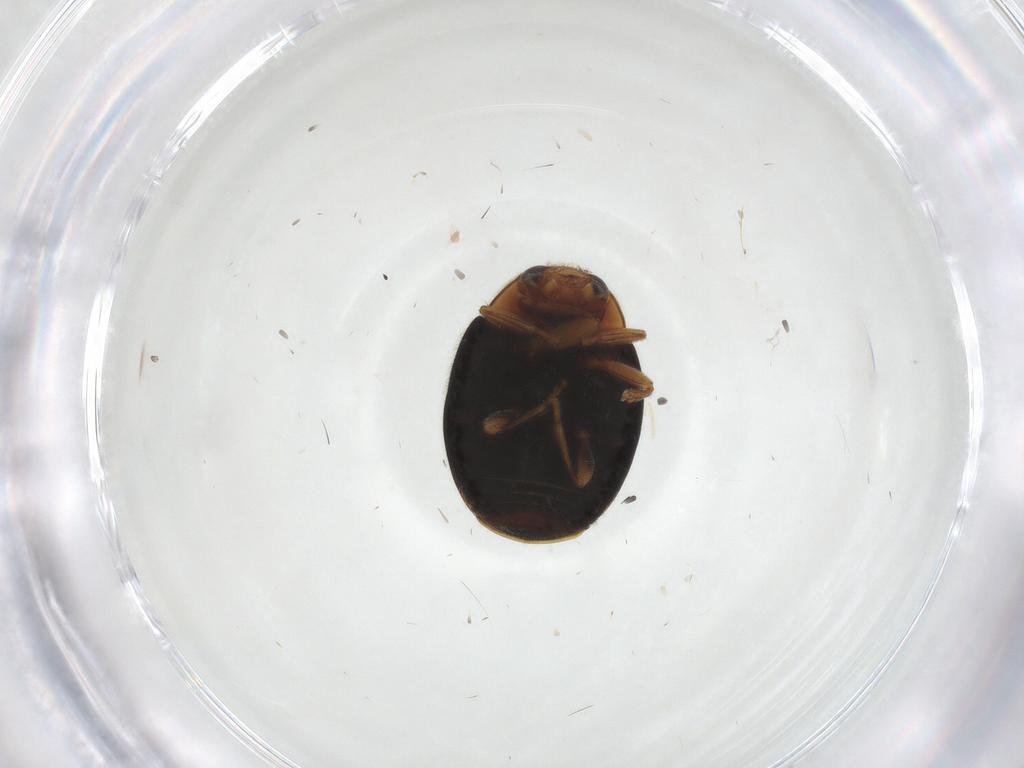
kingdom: Animalia
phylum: Arthropoda
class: Insecta
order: Coleoptera
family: Coccinellidae
